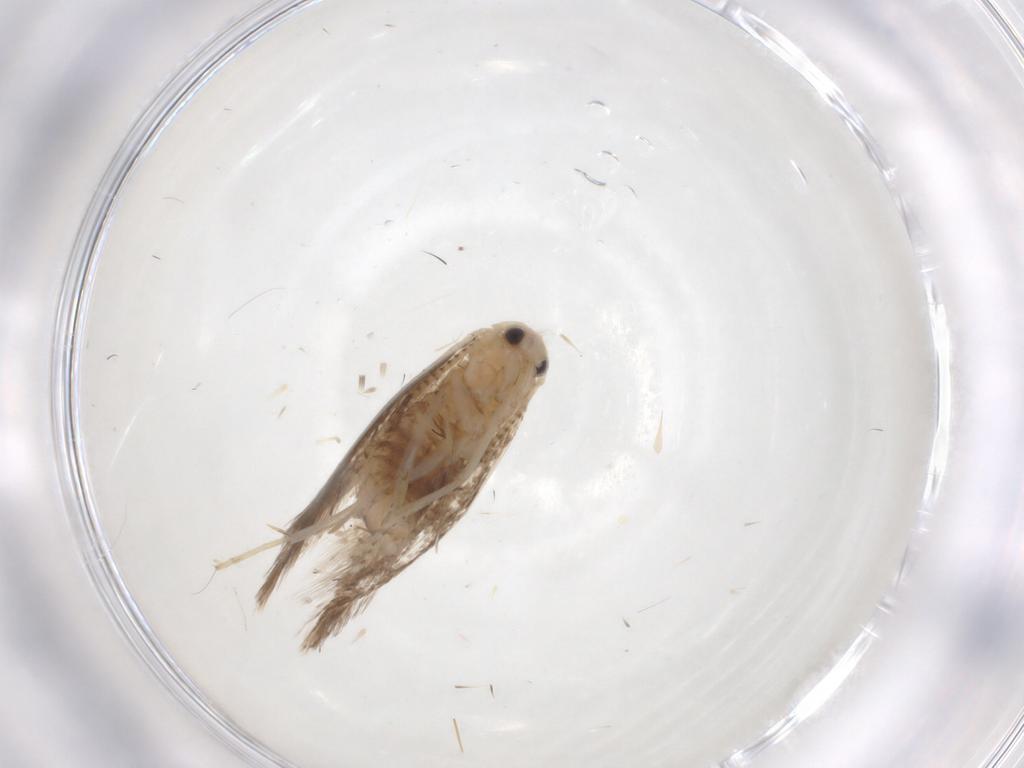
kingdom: Animalia
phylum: Arthropoda
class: Insecta
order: Lepidoptera
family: Bucculatricidae
